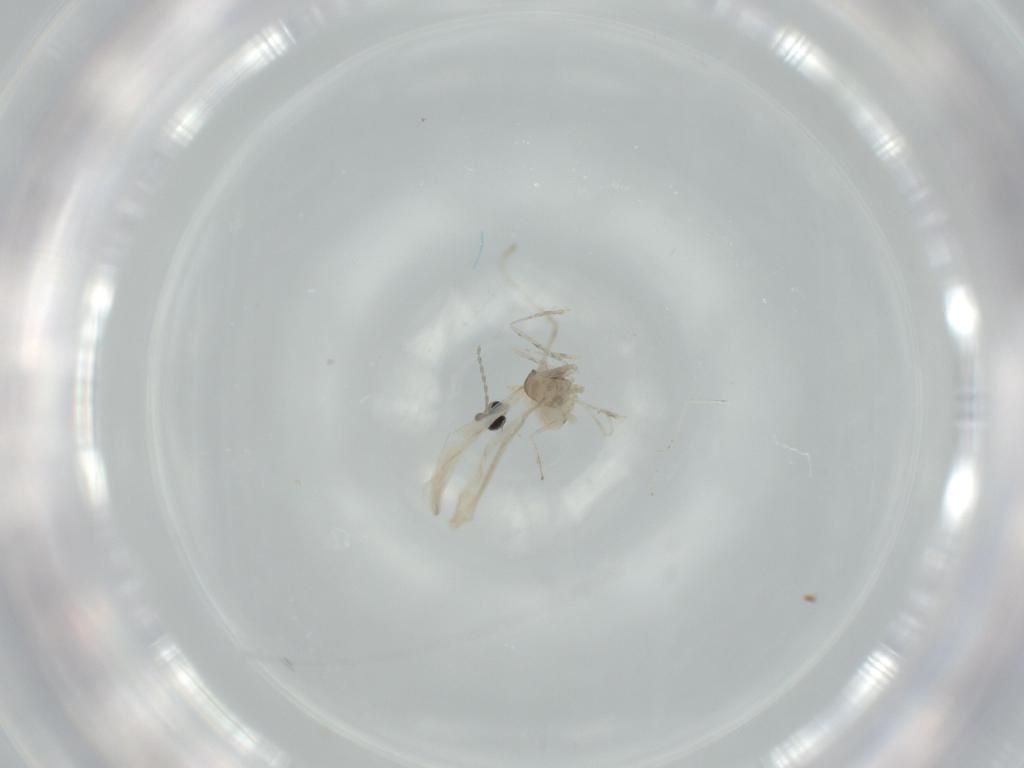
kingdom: Animalia
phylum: Arthropoda
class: Insecta
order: Diptera
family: Cecidomyiidae
